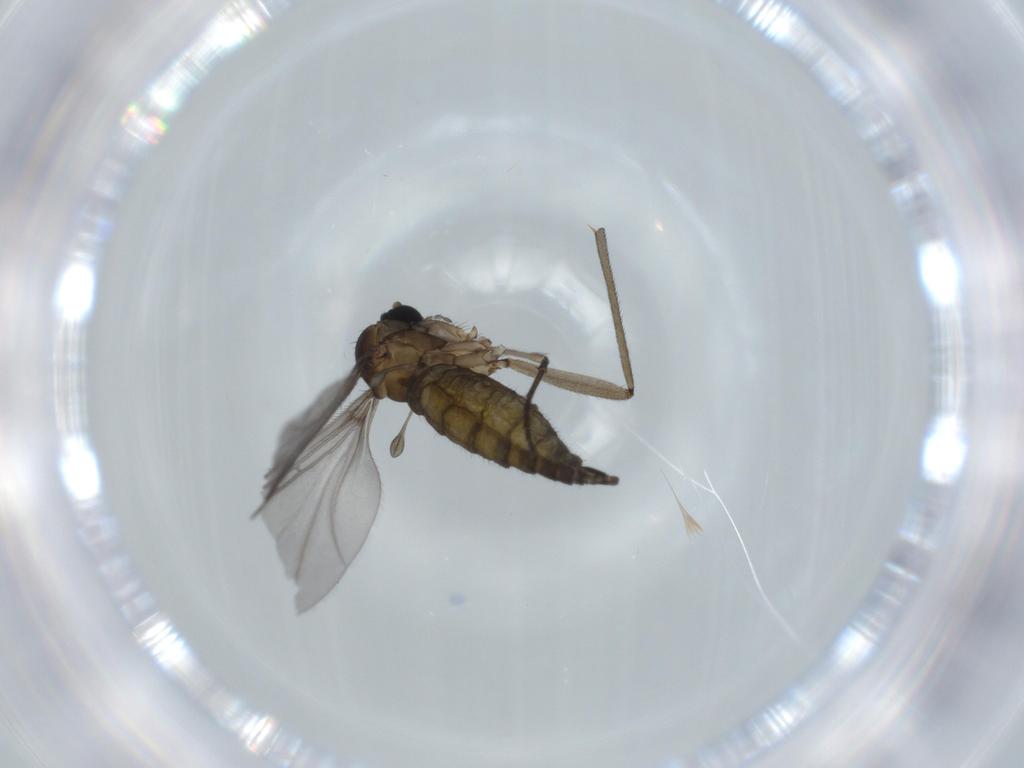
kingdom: Animalia
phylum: Arthropoda
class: Insecta
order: Diptera
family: Sciaridae
